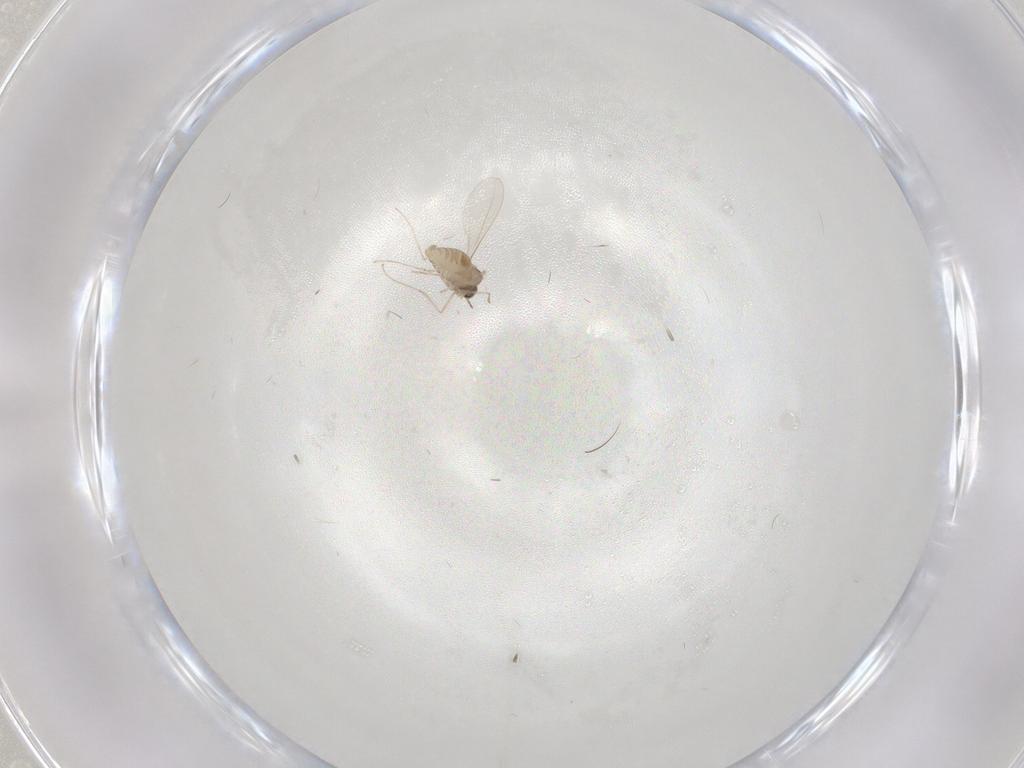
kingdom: Animalia
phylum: Arthropoda
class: Insecta
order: Diptera
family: Cecidomyiidae
